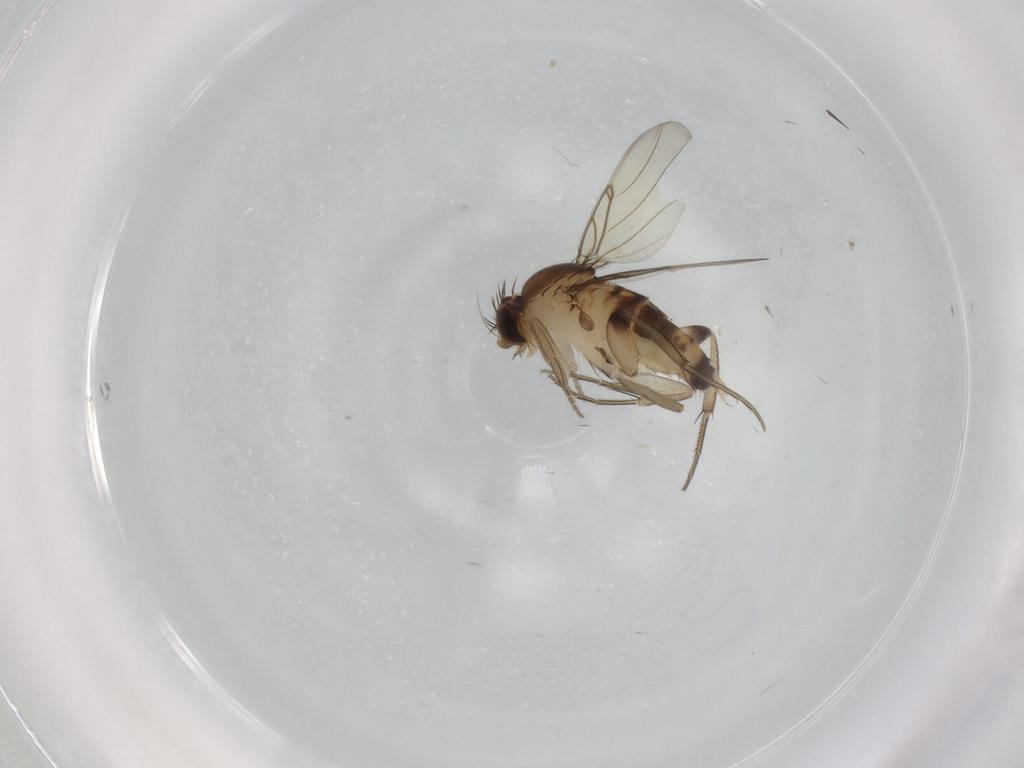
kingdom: Animalia
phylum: Arthropoda
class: Insecta
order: Diptera
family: Phoridae
